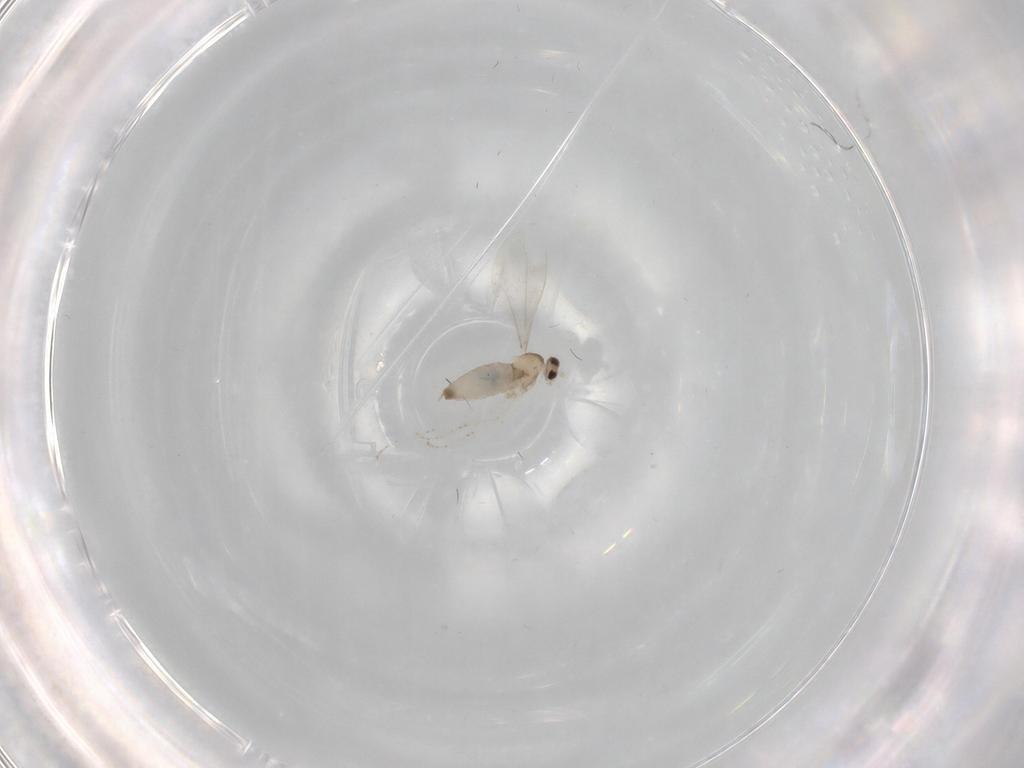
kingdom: Animalia
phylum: Arthropoda
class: Insecta
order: Diptera
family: Cecidomyiidae
